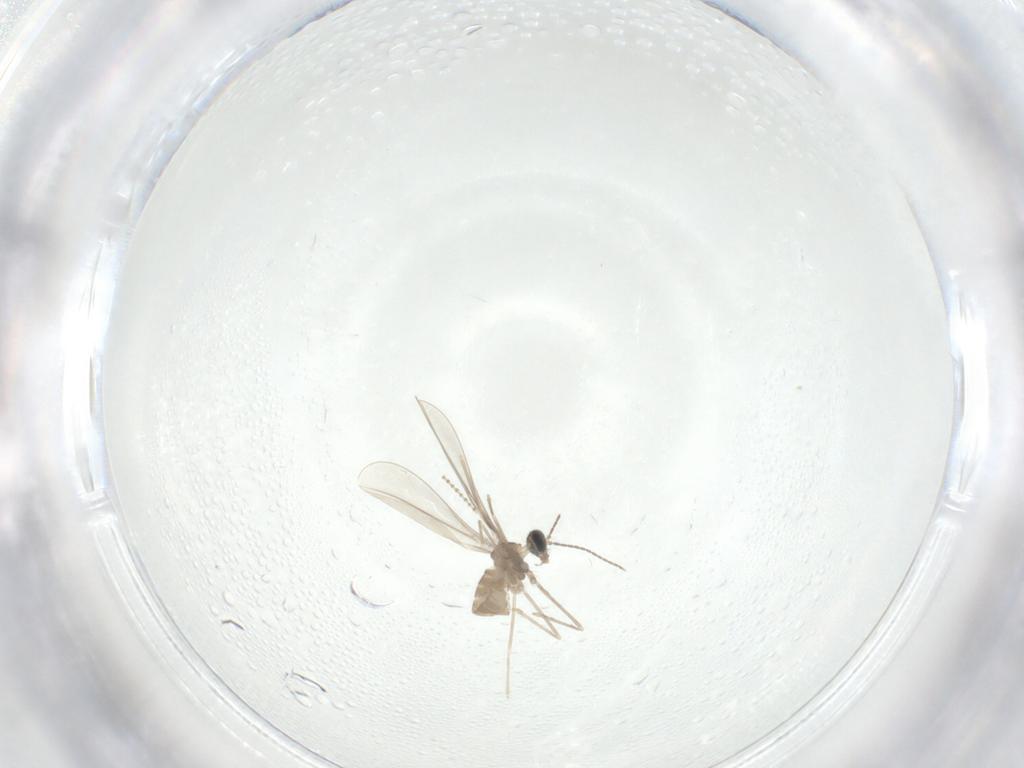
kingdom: Animalia
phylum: Arthropoda
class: Insecta
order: Diptera
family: Cecidomyiidae
